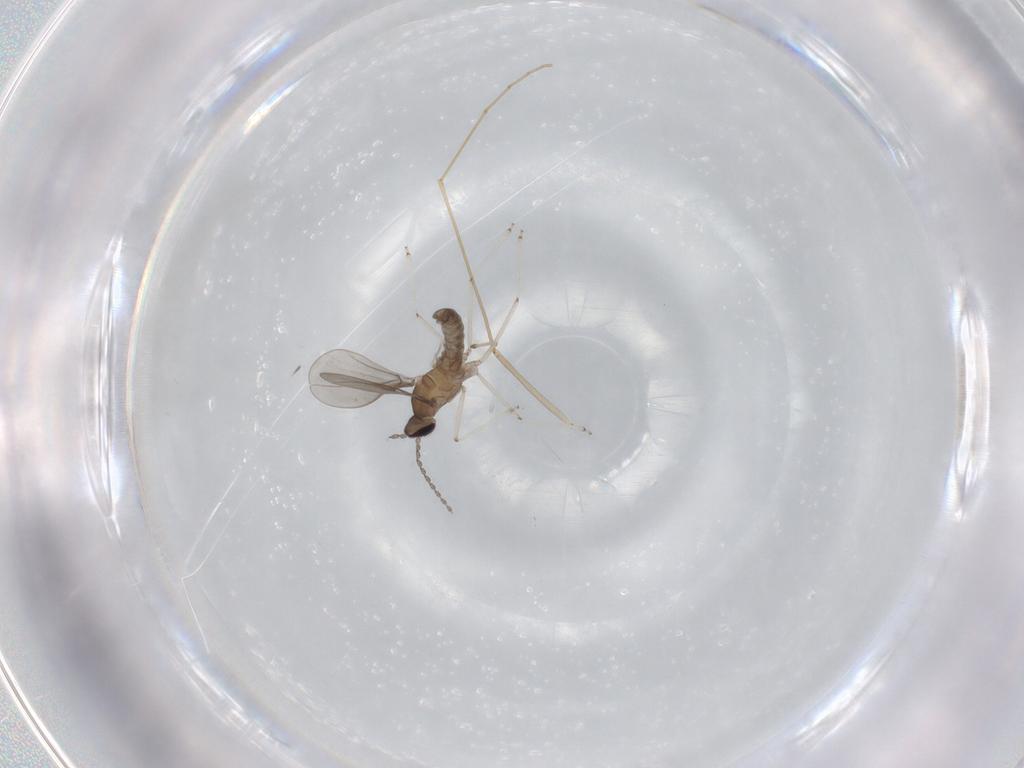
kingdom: Animalia
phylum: Arthropoda
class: Insecta
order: Diptera
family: Cecidomyiidae
